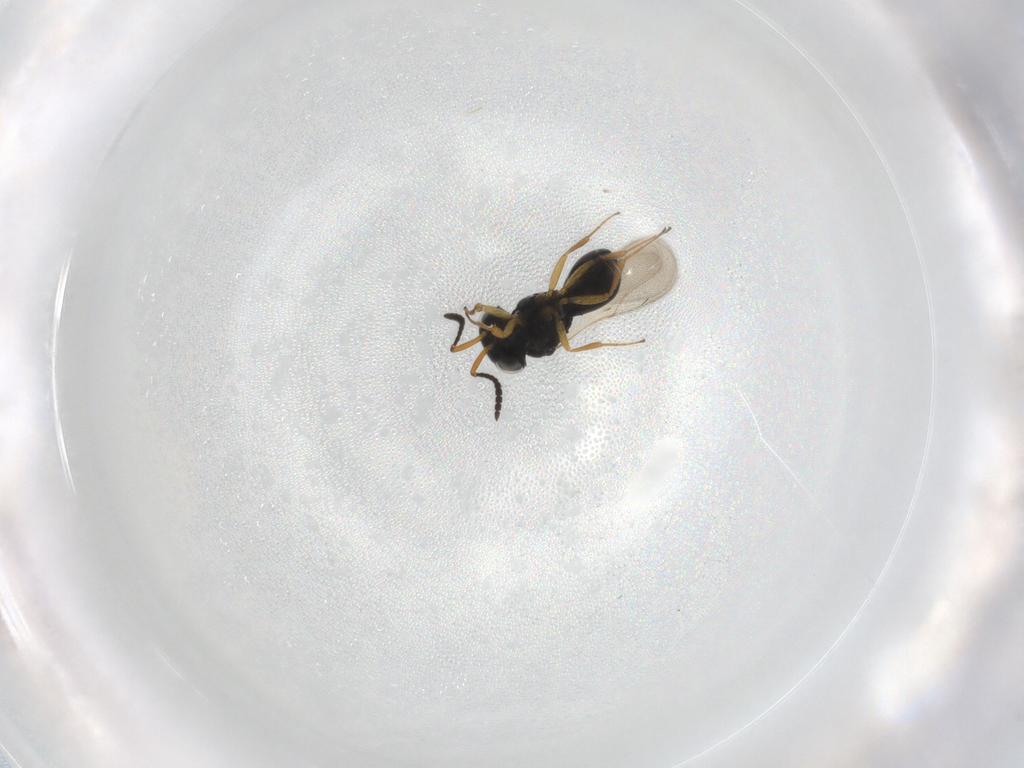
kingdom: Animalia
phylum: Arthropoda
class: Insecta
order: Hymenoptera
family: Scelionidae
